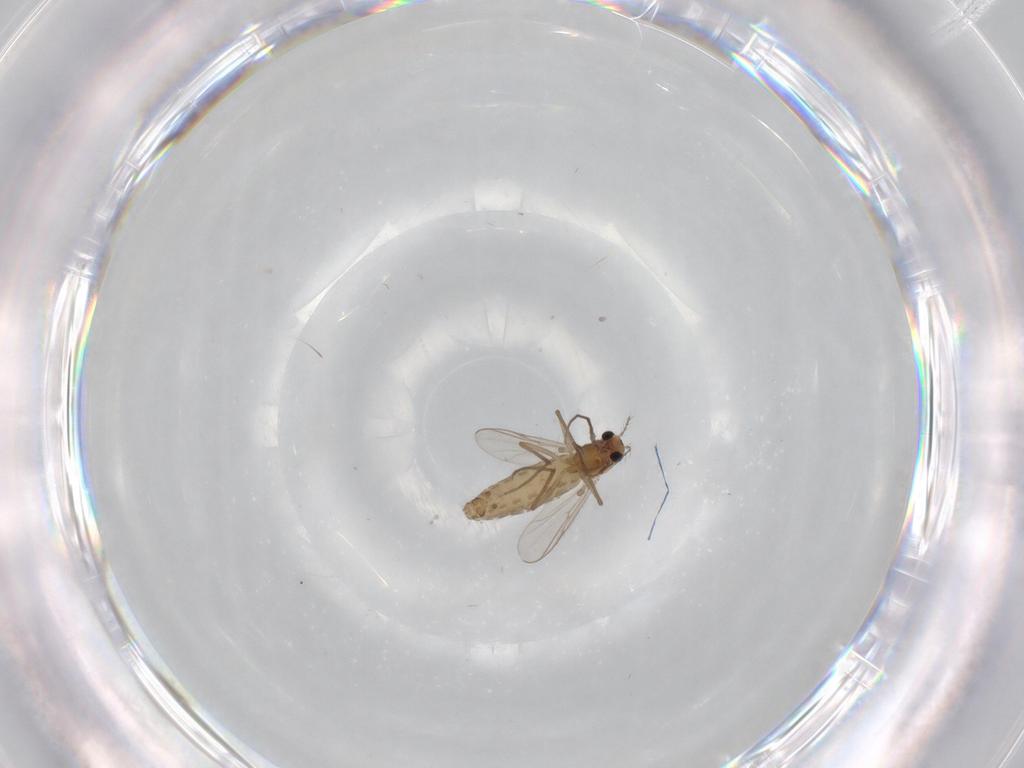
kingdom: Animalia
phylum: Arthropoda
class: Insecta
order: Diptera
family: Chironomidae
